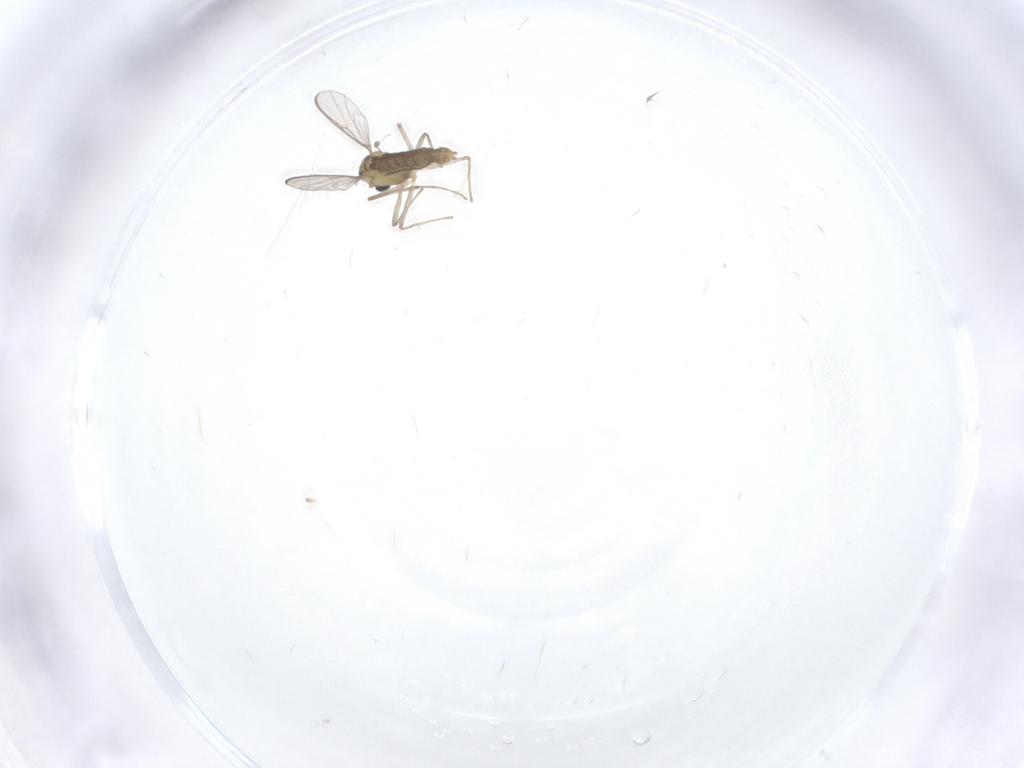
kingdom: Animalia
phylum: Arthropoda
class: Insecta
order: Diptera
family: Chironomidae
